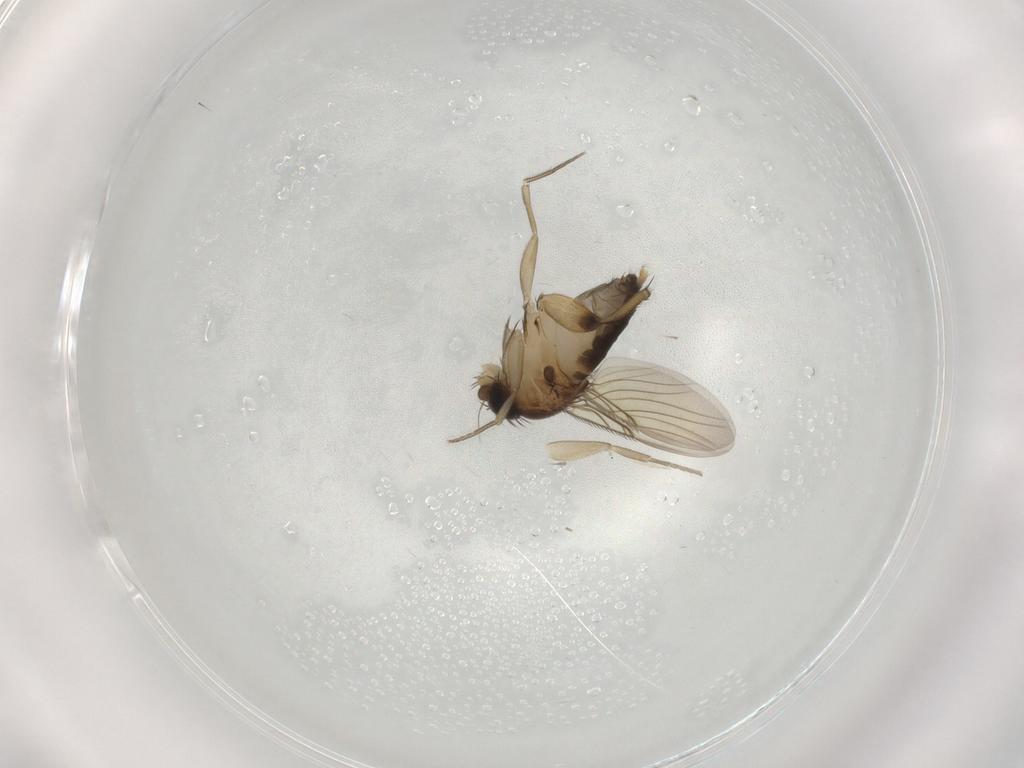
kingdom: Animalia
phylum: Arthropoda
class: Insecta
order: Diptera
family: Phoridae
